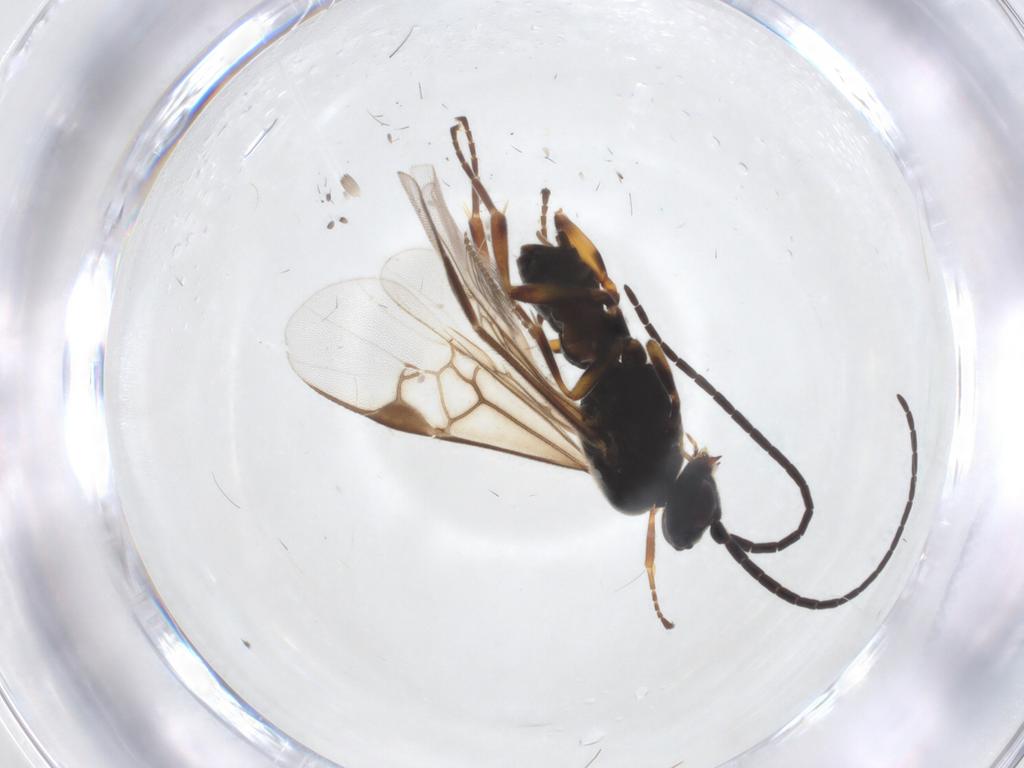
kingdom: Animalia
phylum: Arthropoda
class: Insecta
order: Hymenoptera
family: Braconidae
